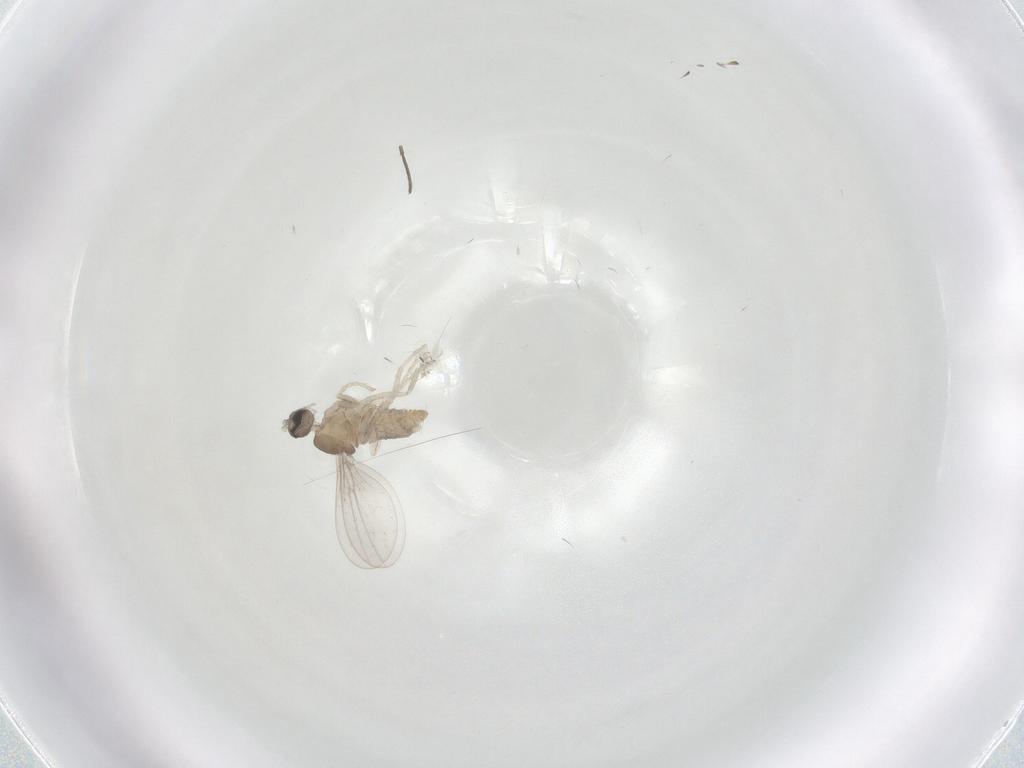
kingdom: Animalia
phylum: Arthropoda
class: Insecta
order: Diptera
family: Cecidomyiidae
